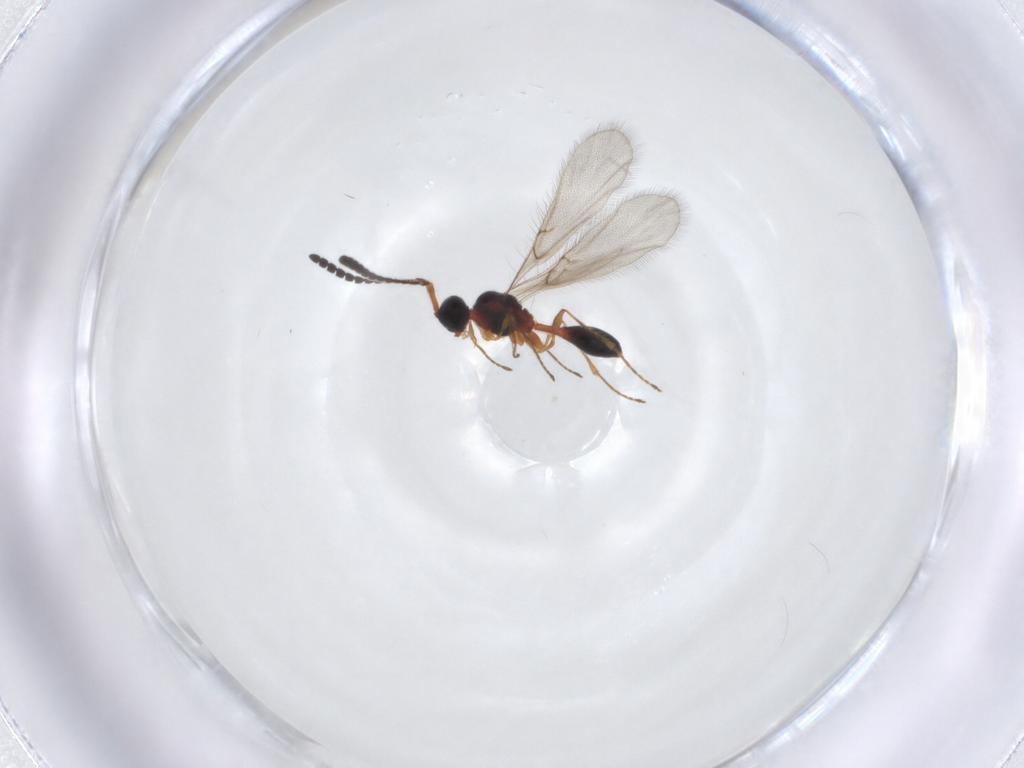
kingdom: Animalia
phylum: Arthropoda
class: Insecta
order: Hymenoptera
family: Diapriidae
